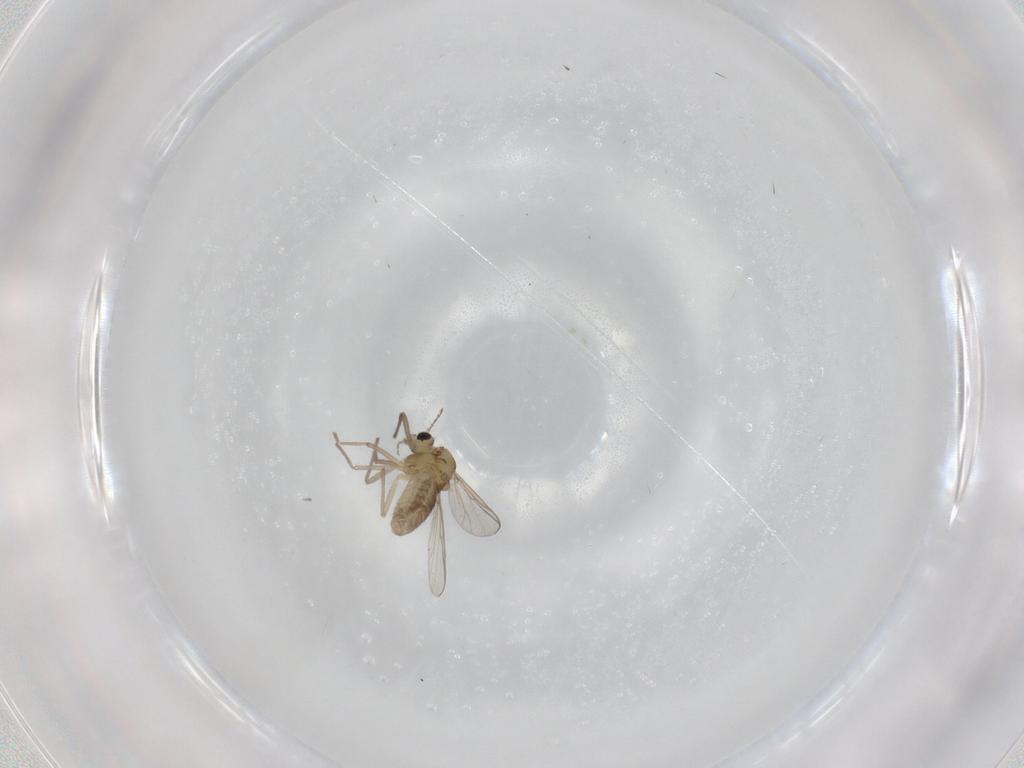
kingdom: Animalia
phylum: Arthropoda
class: Insecta
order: Diptera
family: Chironomidae
